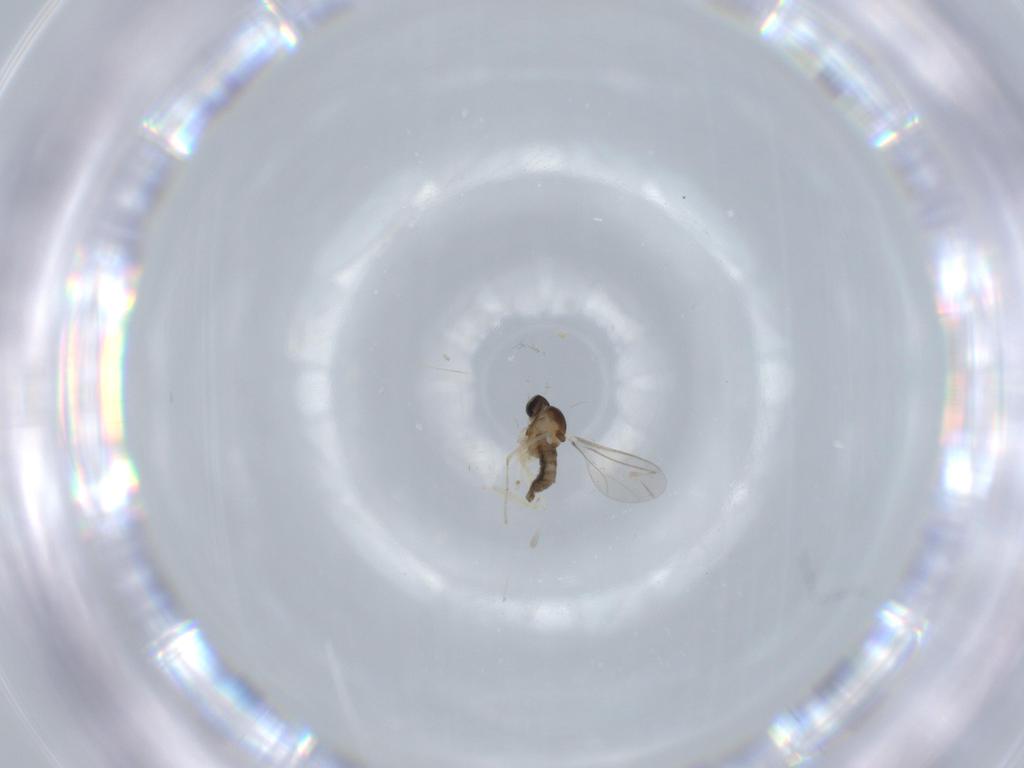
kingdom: Animalia
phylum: Arthropoda
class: Insecta
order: Diptera
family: Cecidomyiidae
